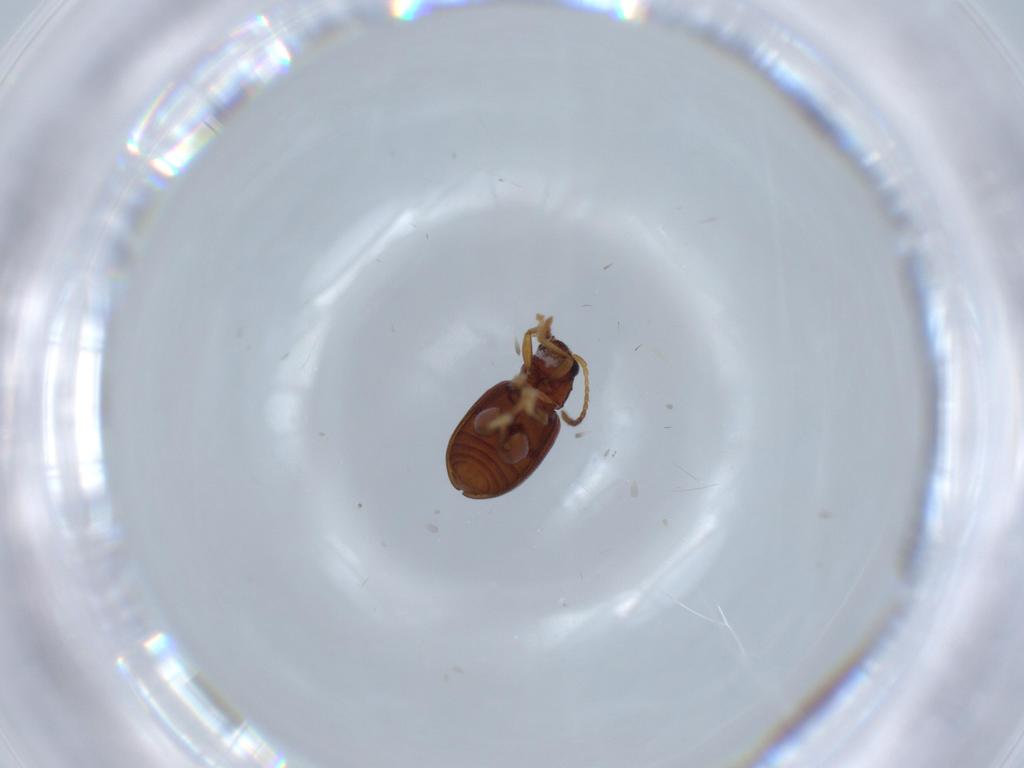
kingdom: Animalia
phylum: Arthropoda
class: Insecta
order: Coleoptera
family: Chrysomelidae
